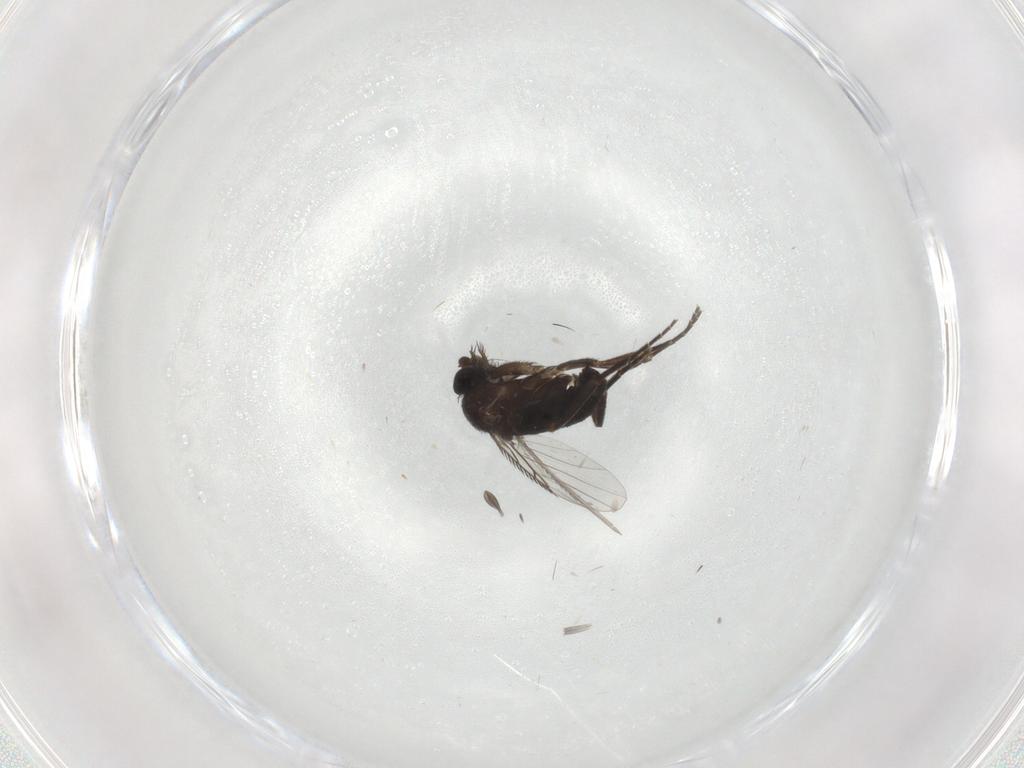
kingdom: Animalia
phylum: Arthropoda
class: Insecta
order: Diptera
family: Phoridae
